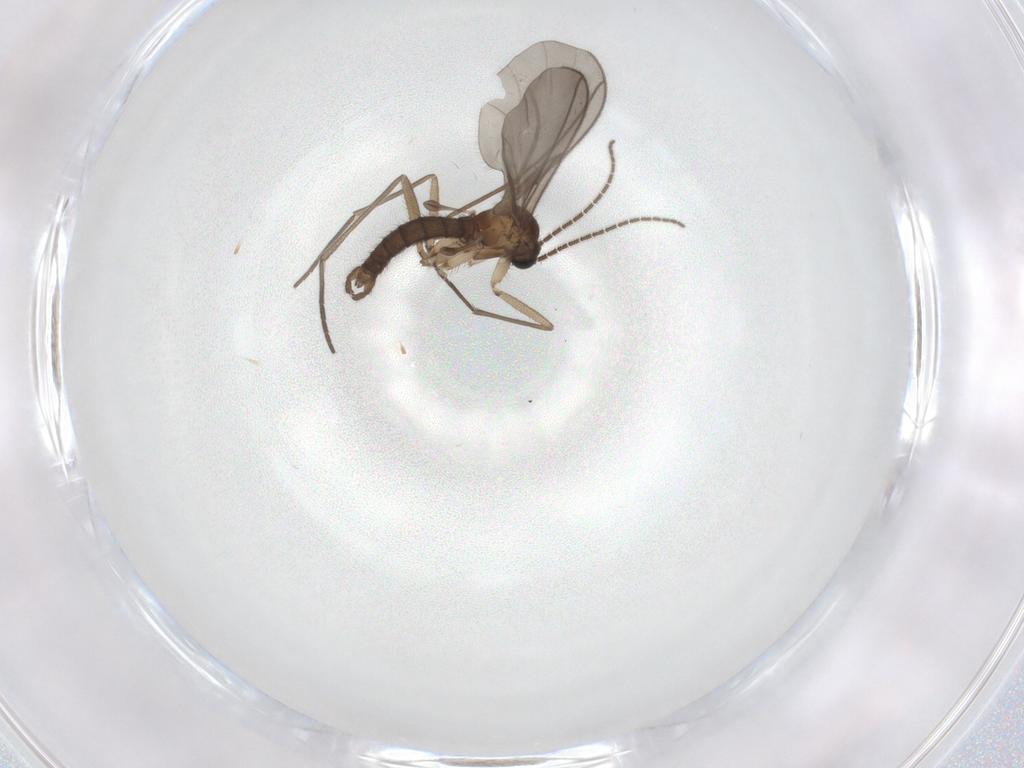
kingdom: Animalia
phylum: Arthropoda
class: Insecta
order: Diptera
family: Sciaridae
